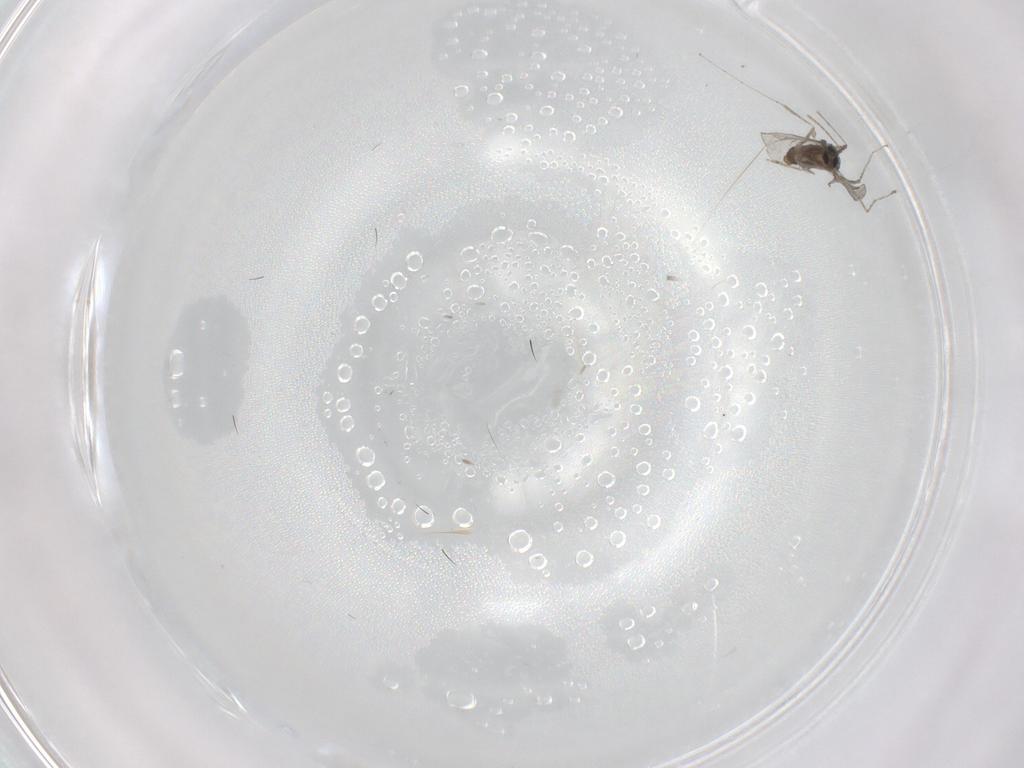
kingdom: Animalia
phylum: Arthropoda
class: Insecta
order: Diptera
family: Cecidomyiidae
